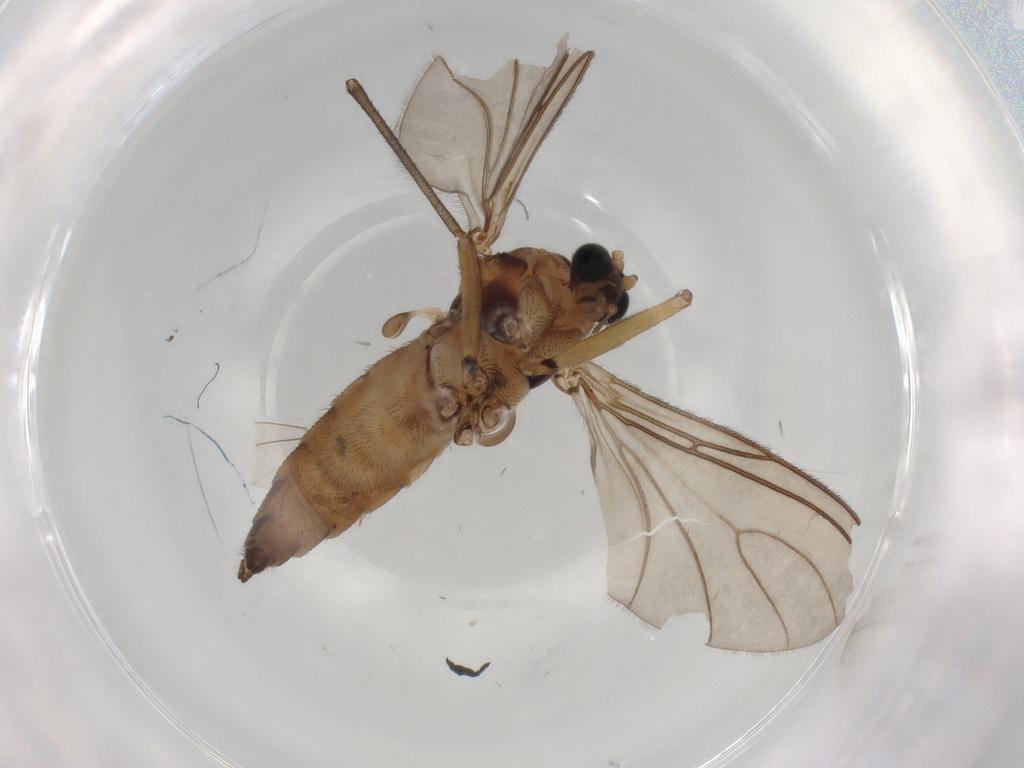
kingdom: Animalia
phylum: Arthropoda
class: Insecta
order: Diptera
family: Sciaridae
